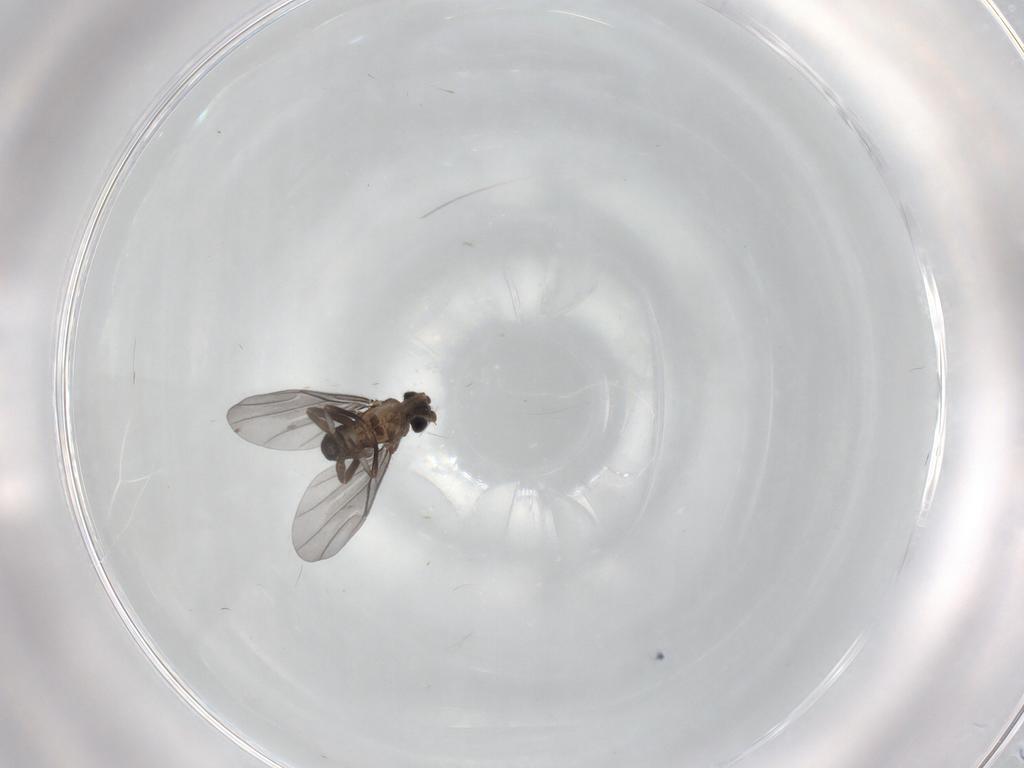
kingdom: Animalia
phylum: Arthropoda
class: Insecta
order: Diptera
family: Phoridae
